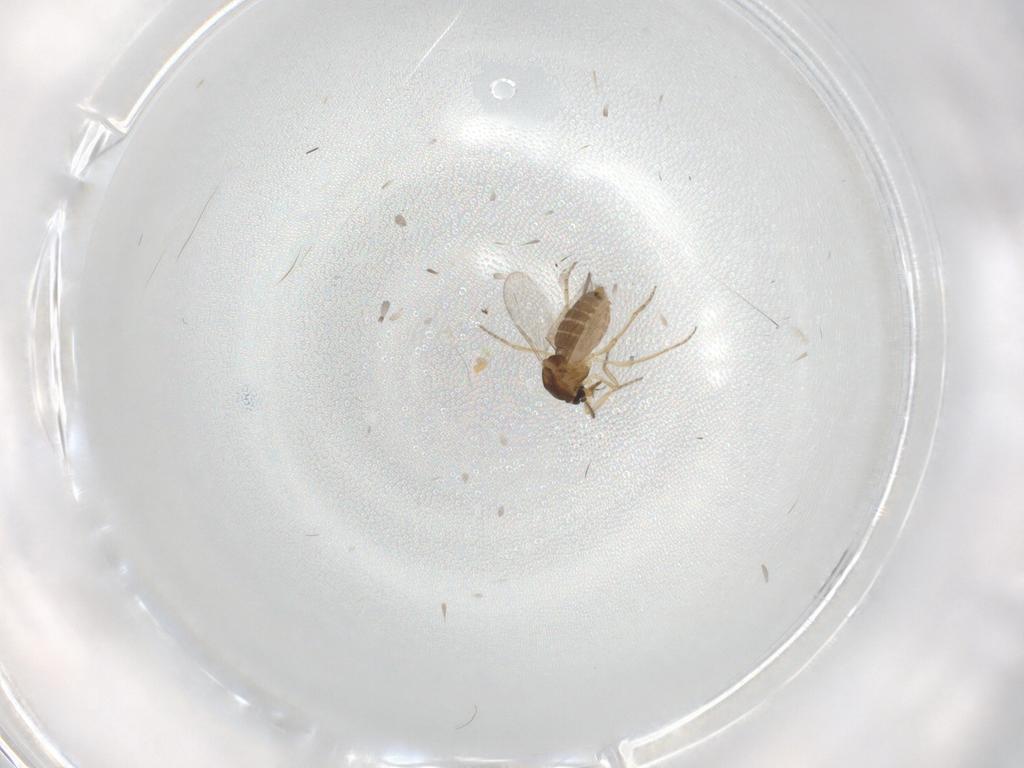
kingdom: Animalia
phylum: Arthropoda
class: Insecta
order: Diptera
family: Ceratopogonidae
